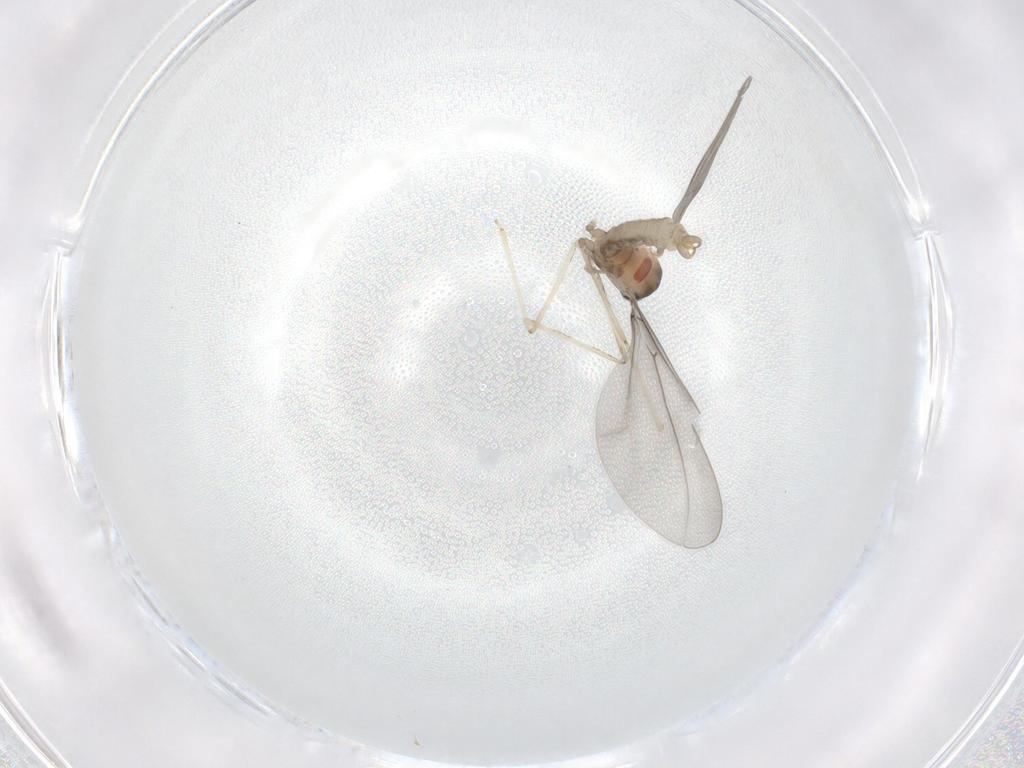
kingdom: Animalia
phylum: Arthropoda
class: Insecta
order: Diptera
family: Cecidomyiidae
